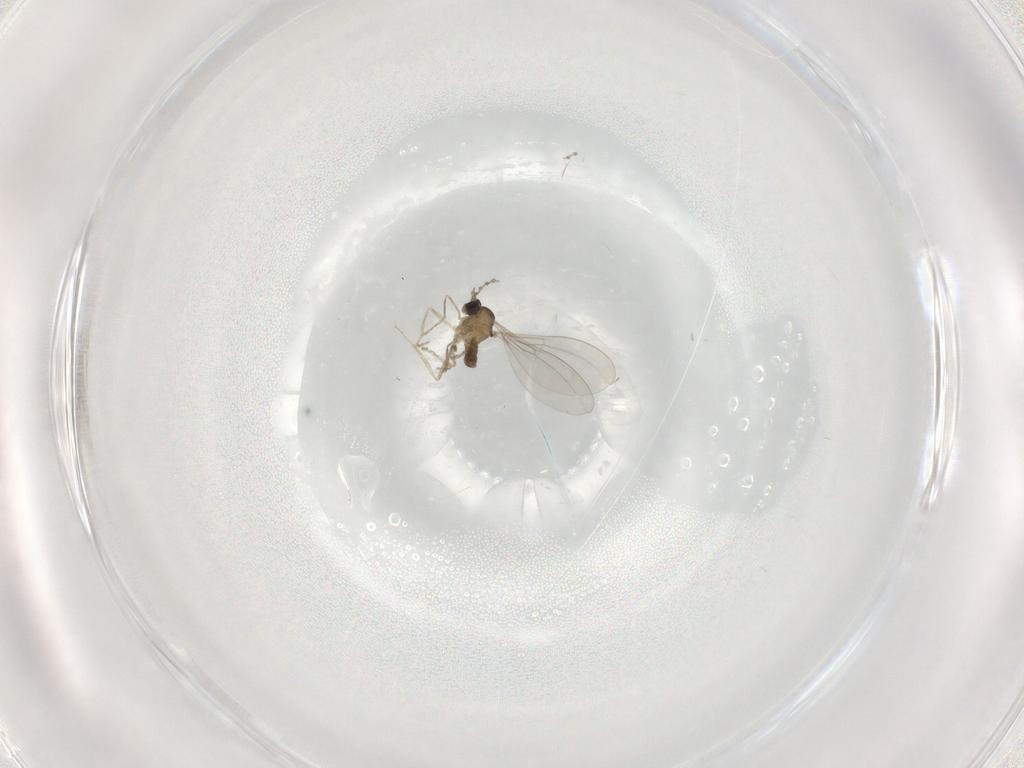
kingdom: Animalia
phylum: Arthropoda
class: Insecta
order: Diptera
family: Cecidomyiidae
